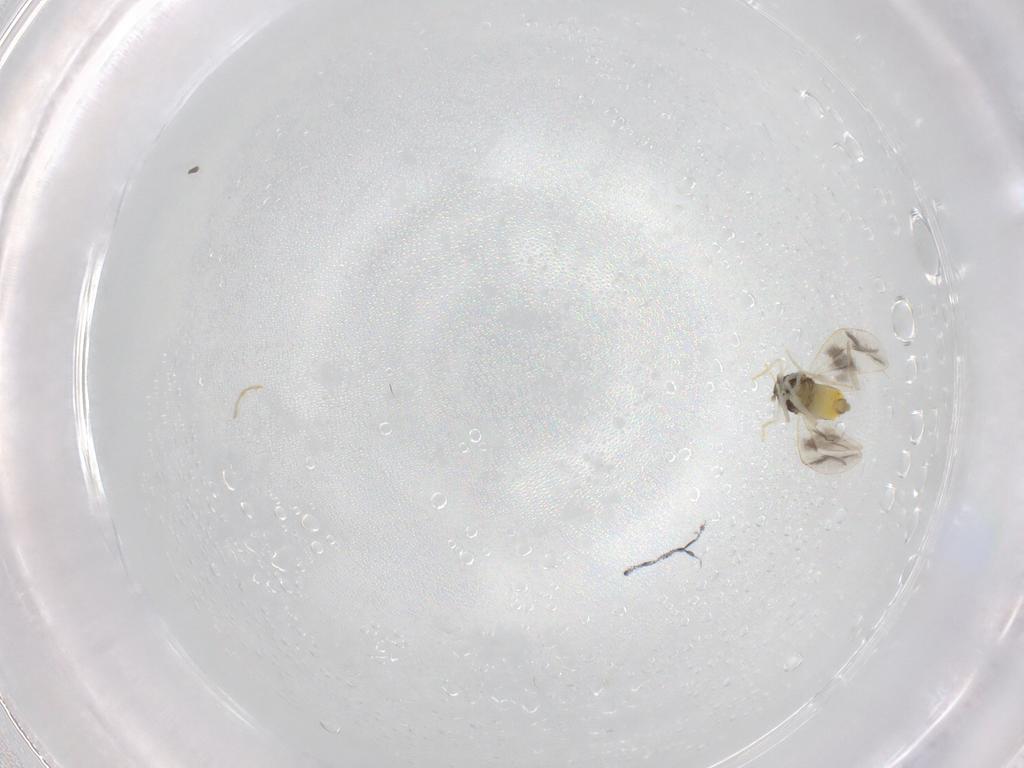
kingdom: Animalia
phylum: Arthropoda
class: Insecta
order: Hemiptera
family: Aleyrodidae
